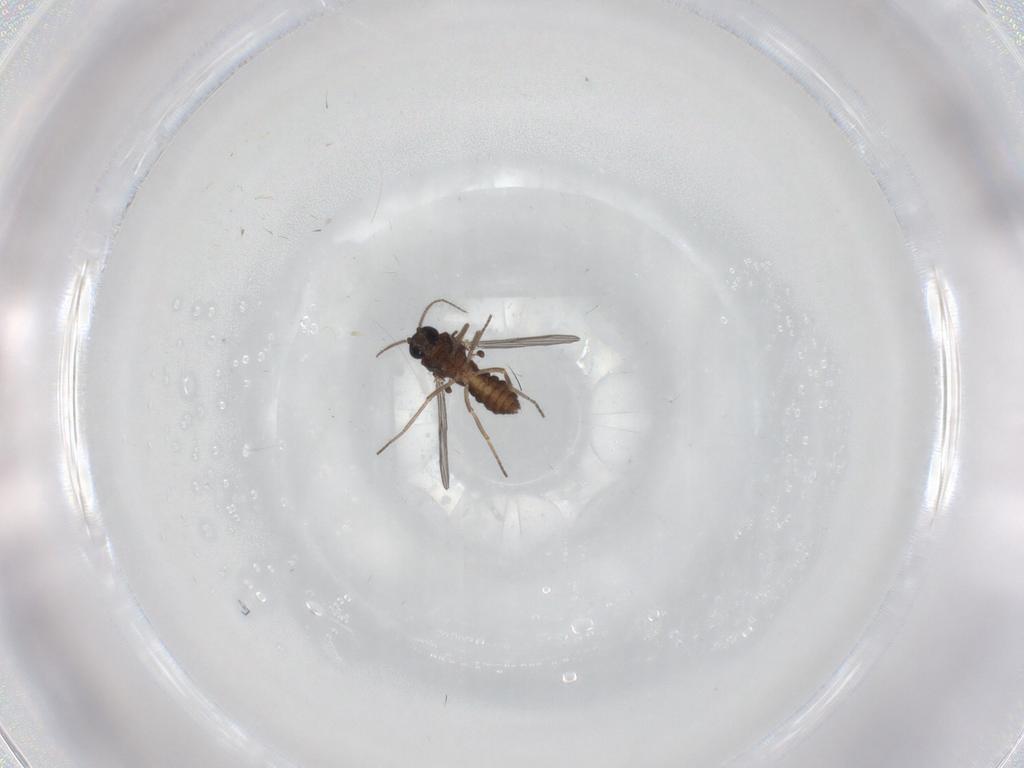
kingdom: Animalia
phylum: Arthropoda
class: Insecta
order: Diptera
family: Ceratopogonidae
